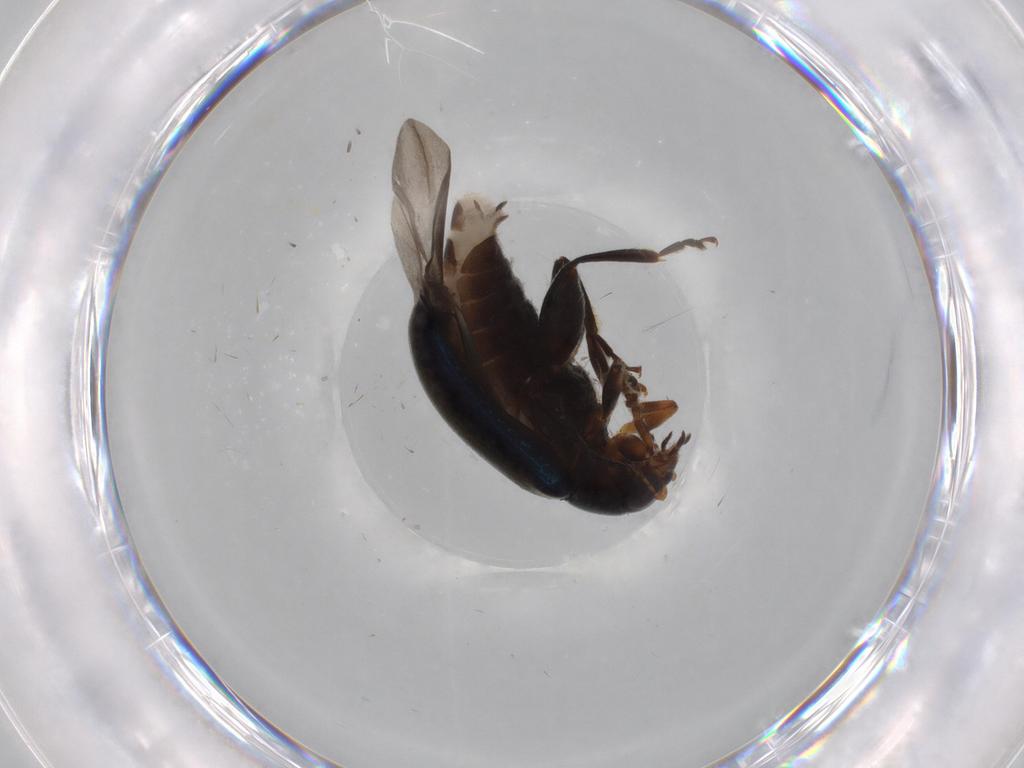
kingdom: Animalia
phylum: Arthropoda
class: Insecta
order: Coleoptera
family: Chrysomelidae
